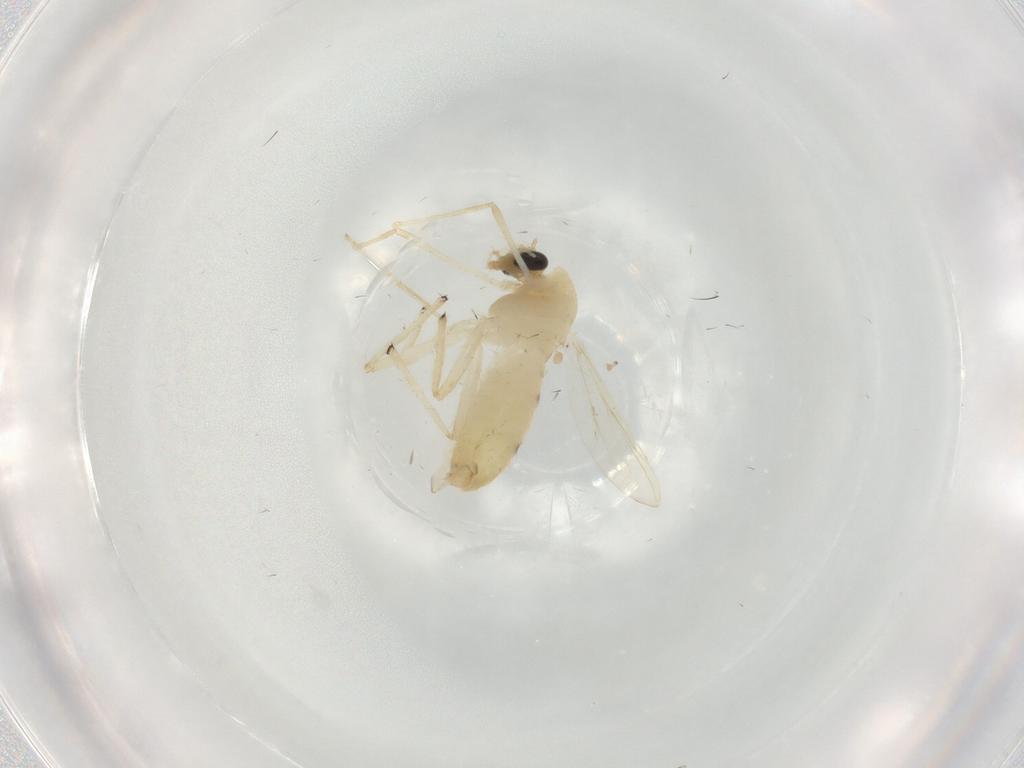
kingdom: Animalia
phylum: Arthropoda
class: Insecta
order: Diptera
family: Chironomidae
